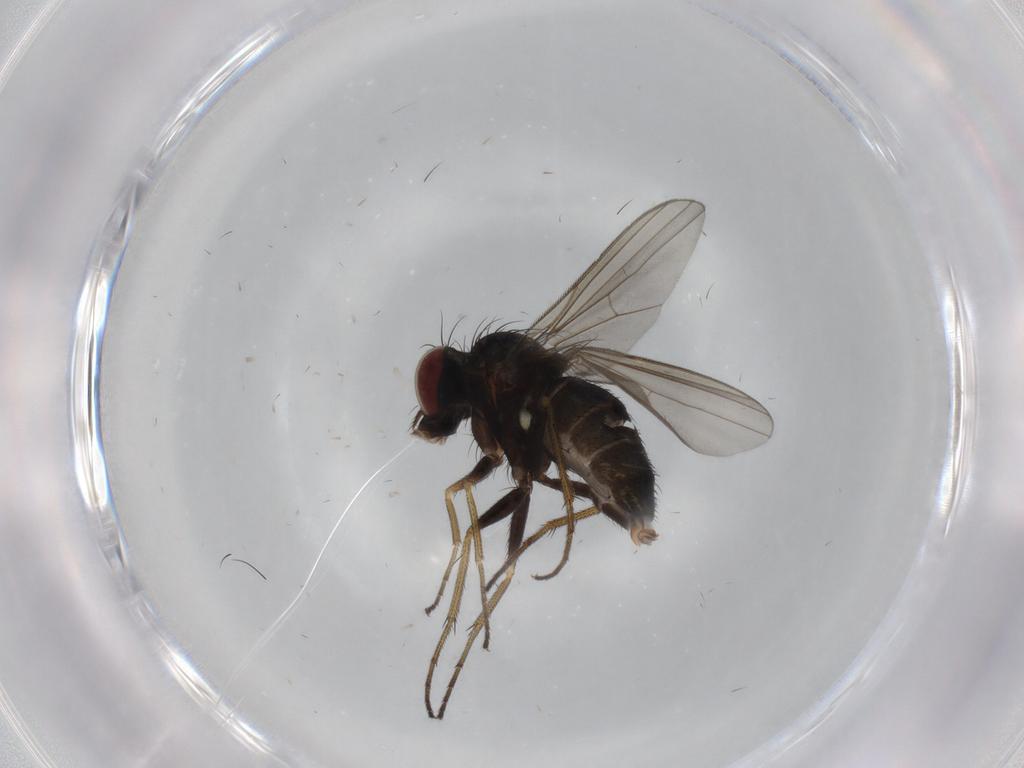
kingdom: Animalia
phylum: Arthropoda
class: Insecta
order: Diptera
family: Dolichopodidae
